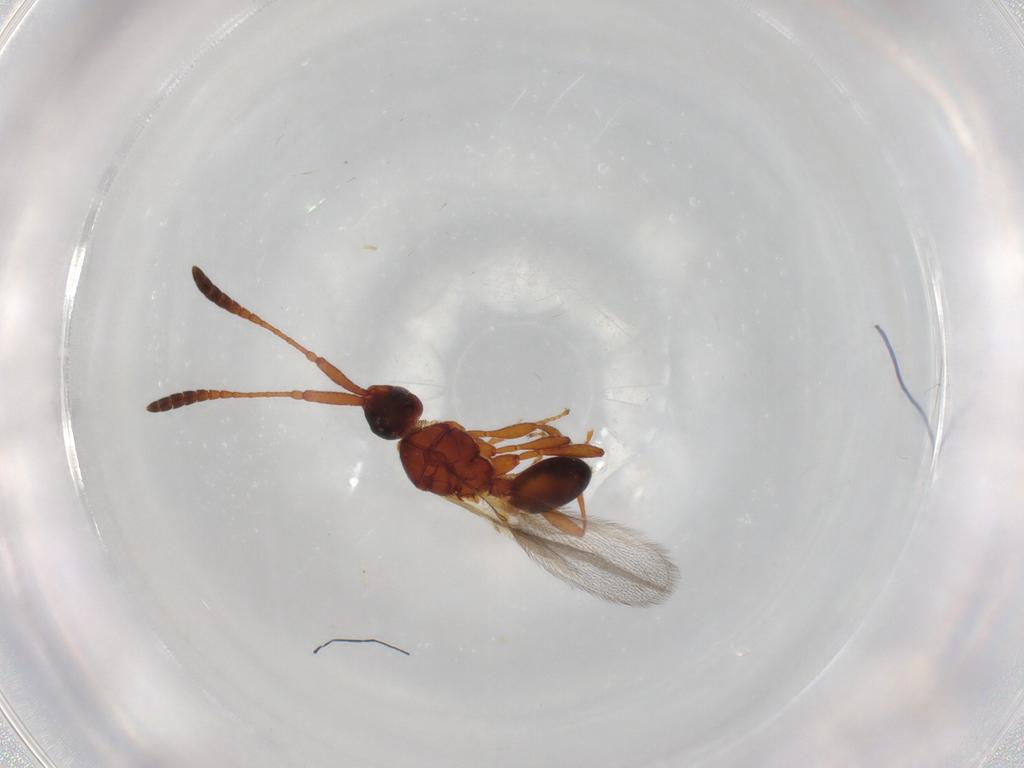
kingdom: Animalia
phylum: Arthropoda
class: Insecta
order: Hymenoptera
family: Diapriidae
